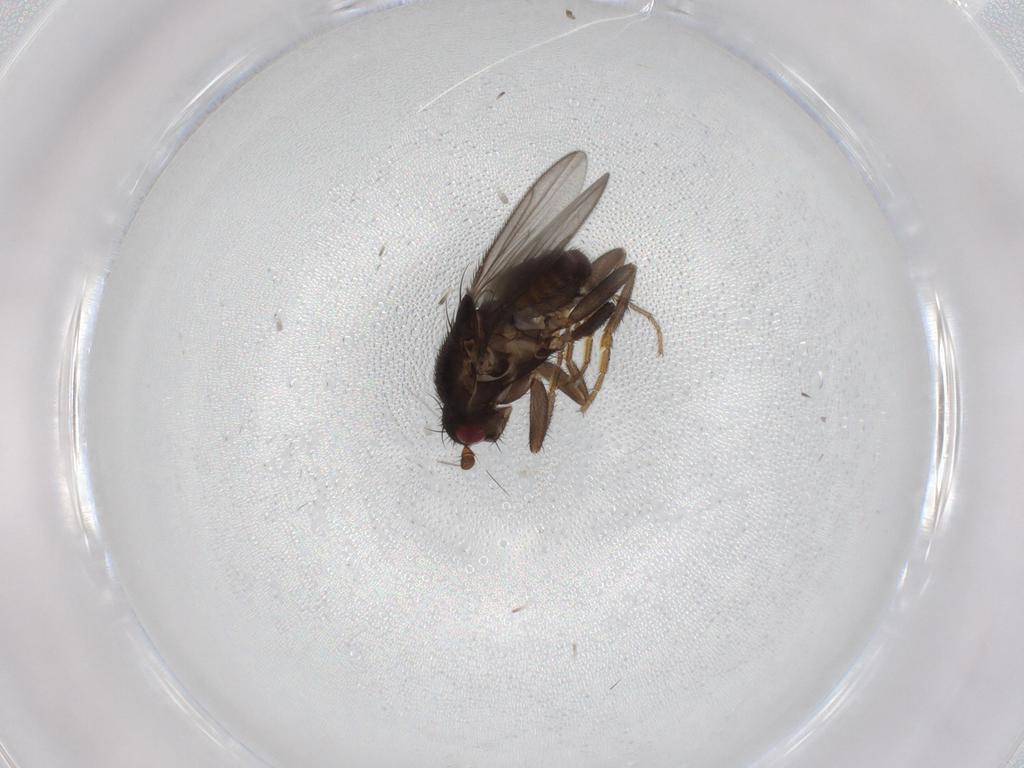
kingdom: Animalia
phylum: Arthropoda
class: Insecta
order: Diptera
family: Sphaeroceridae
